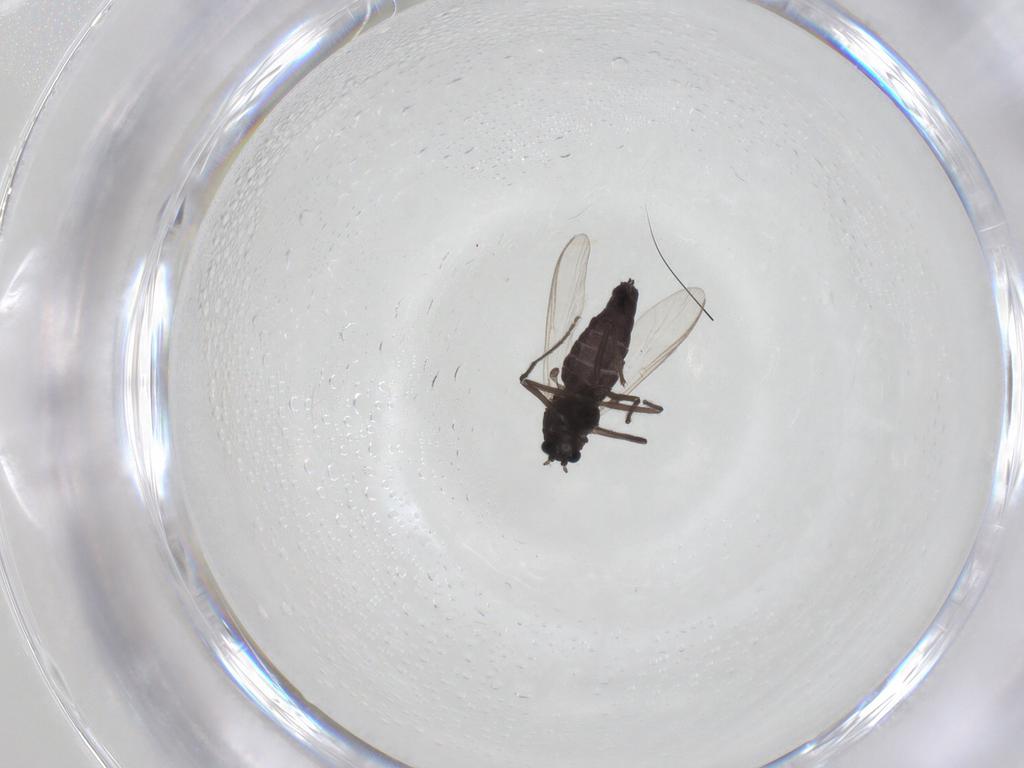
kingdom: Animalia
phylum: Arthropoda
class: Insecta
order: Diptera
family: Chironomidae
